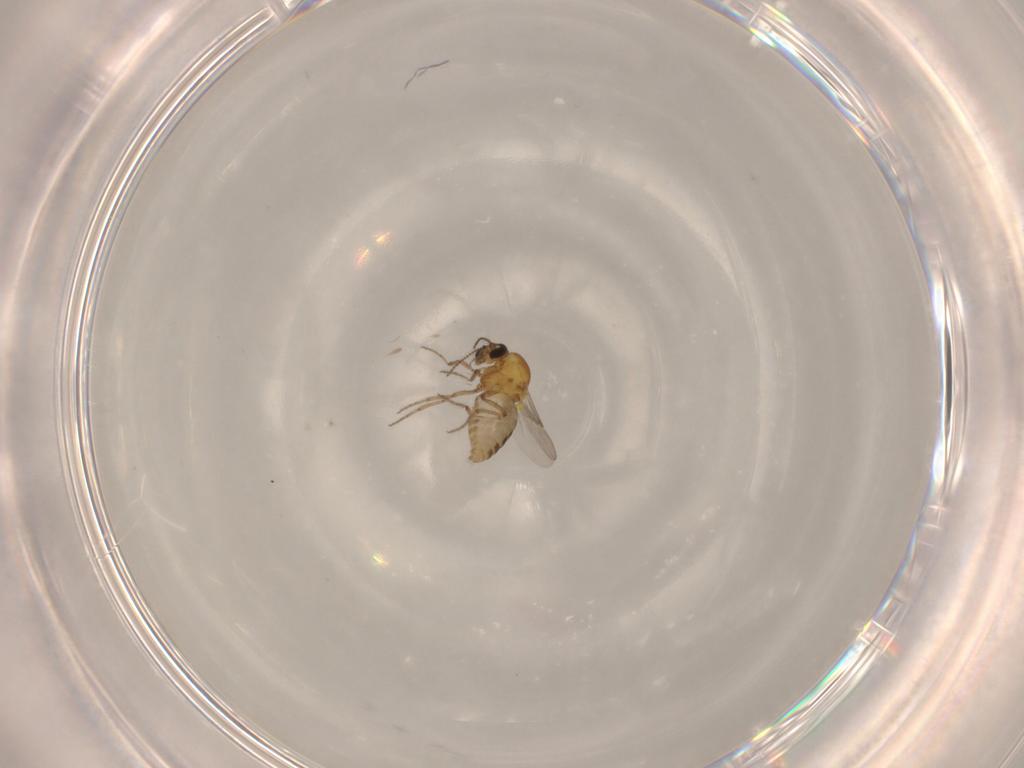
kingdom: Animalia
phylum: Arthropoda
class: Insecta
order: Diptera
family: Ceratopogonidae
